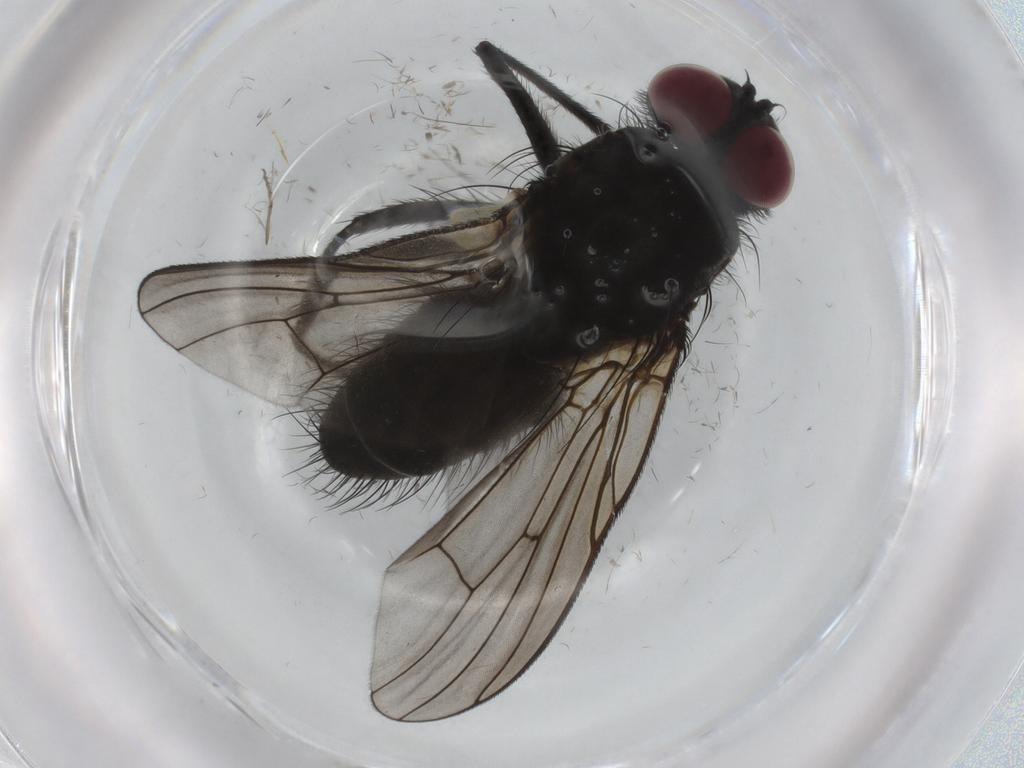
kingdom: Animalia
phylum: Arthropoda
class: Insecta
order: Diptera
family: Muscidae
